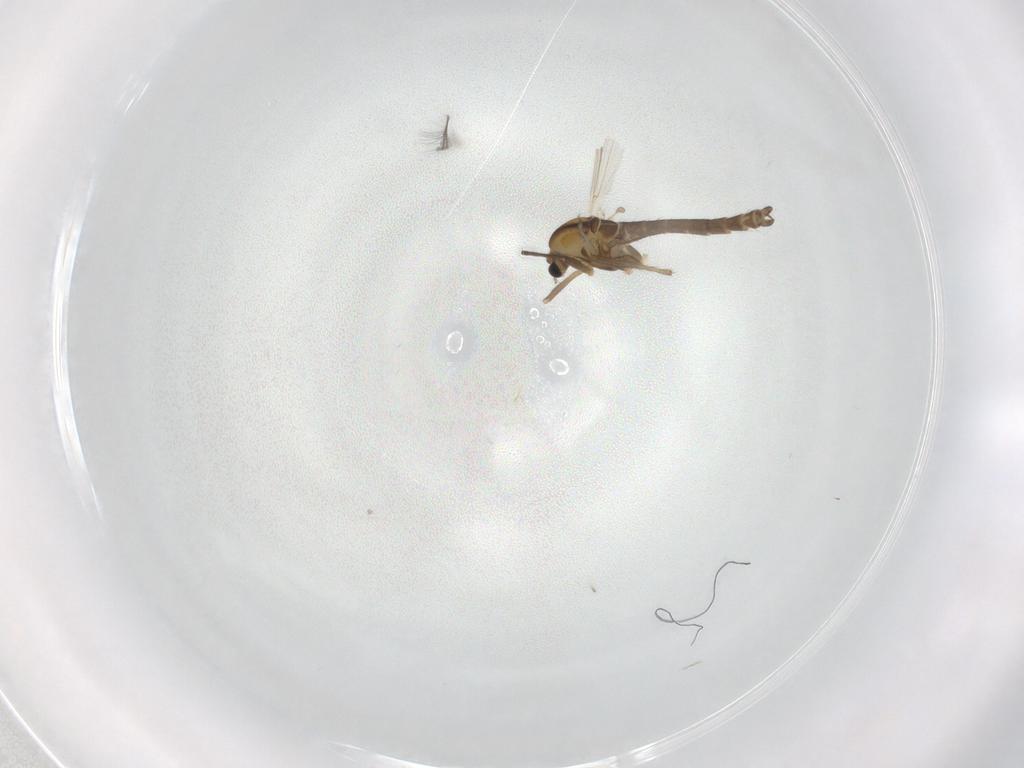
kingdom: Animalia
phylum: Arthropoda
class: Insecta
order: Diptera
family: Chironomidae
